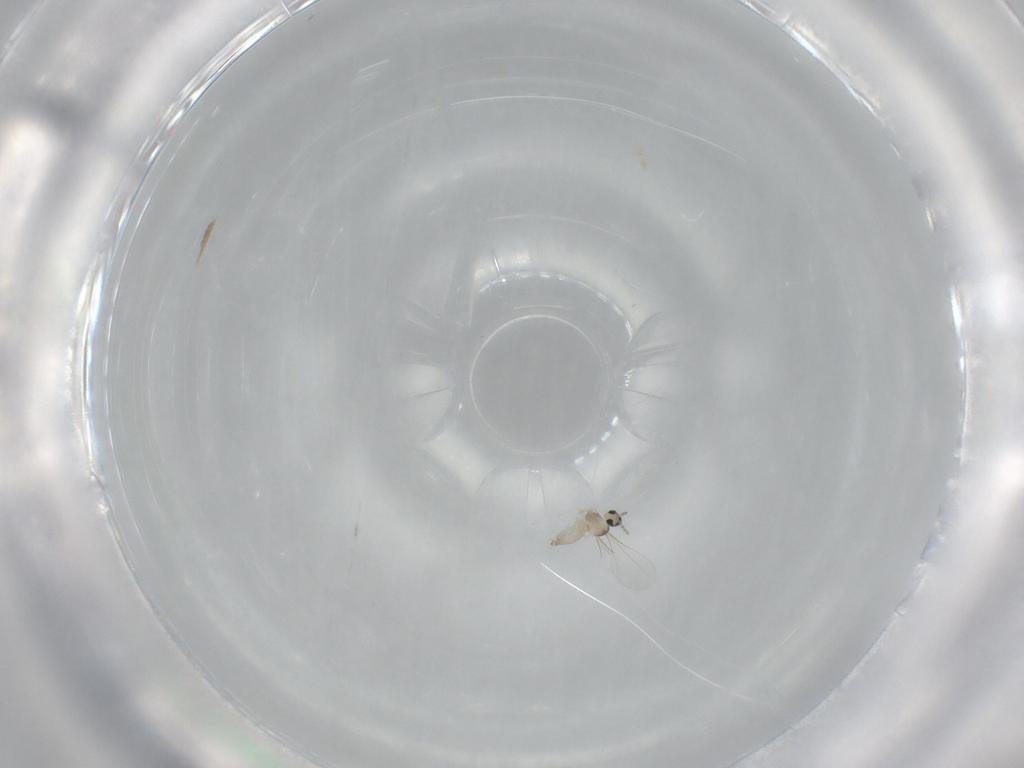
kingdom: Animalia
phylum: Arthropoda
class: Insecta
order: Diptera
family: Cecidomyiidae
